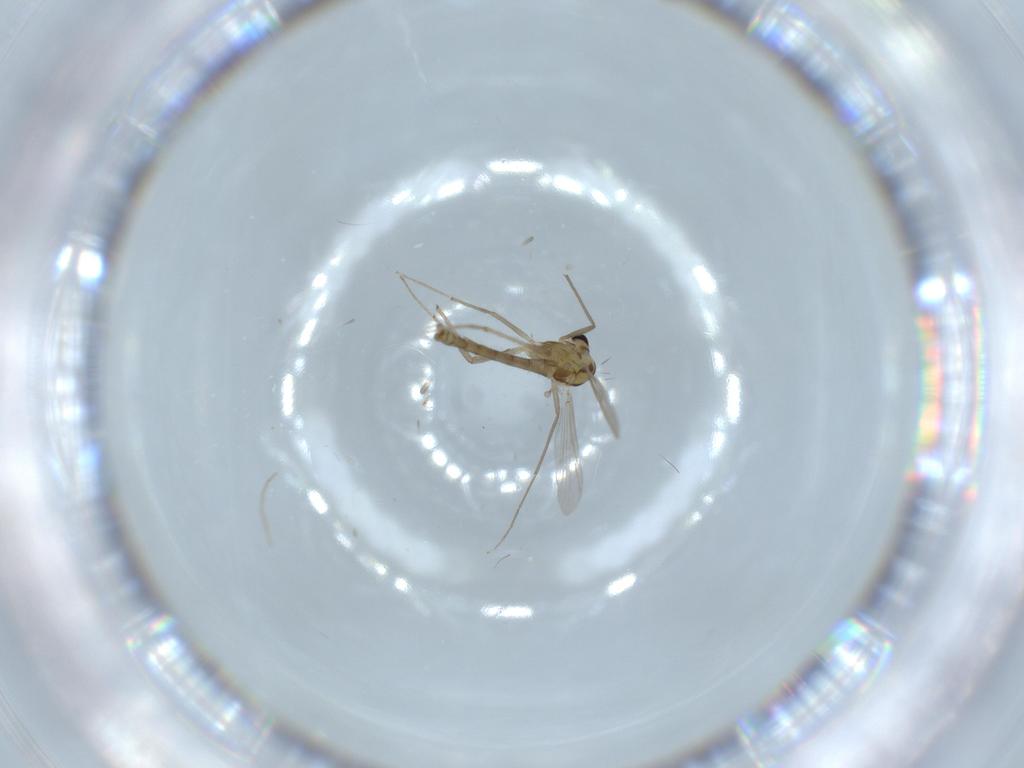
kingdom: Animalia
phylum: Arthropoda
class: Insecta
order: Diptera
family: Chironomidae
